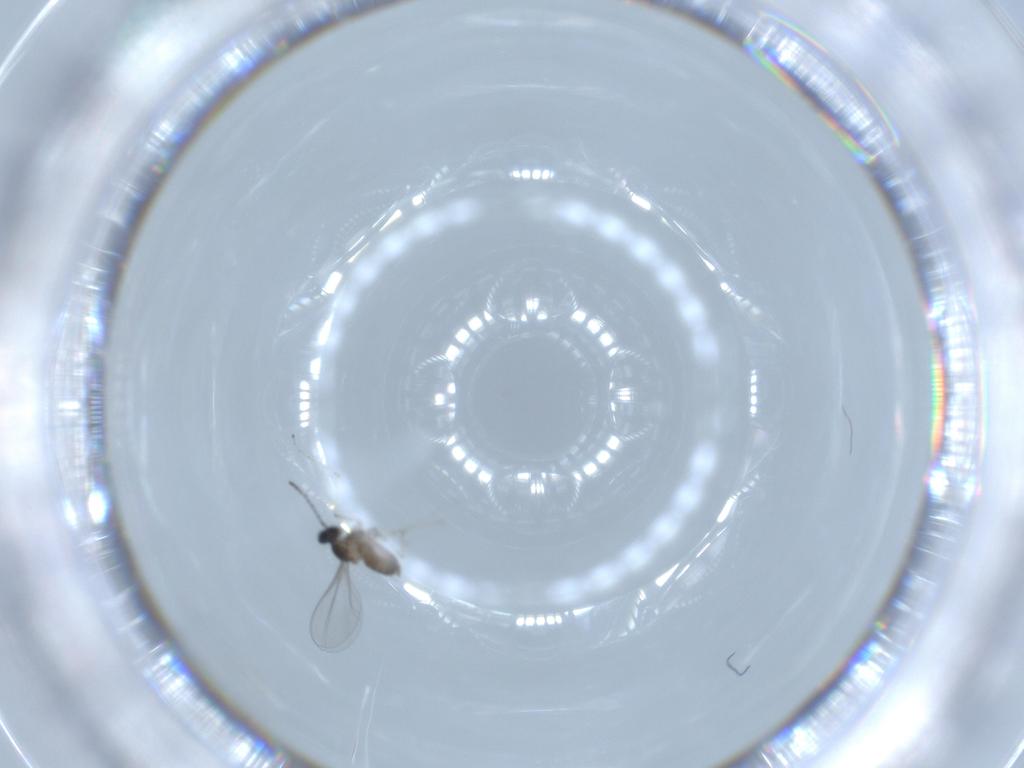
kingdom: Animalia
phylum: Arthropoda
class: Insecta
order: Diptera
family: Cecidomyiidae
